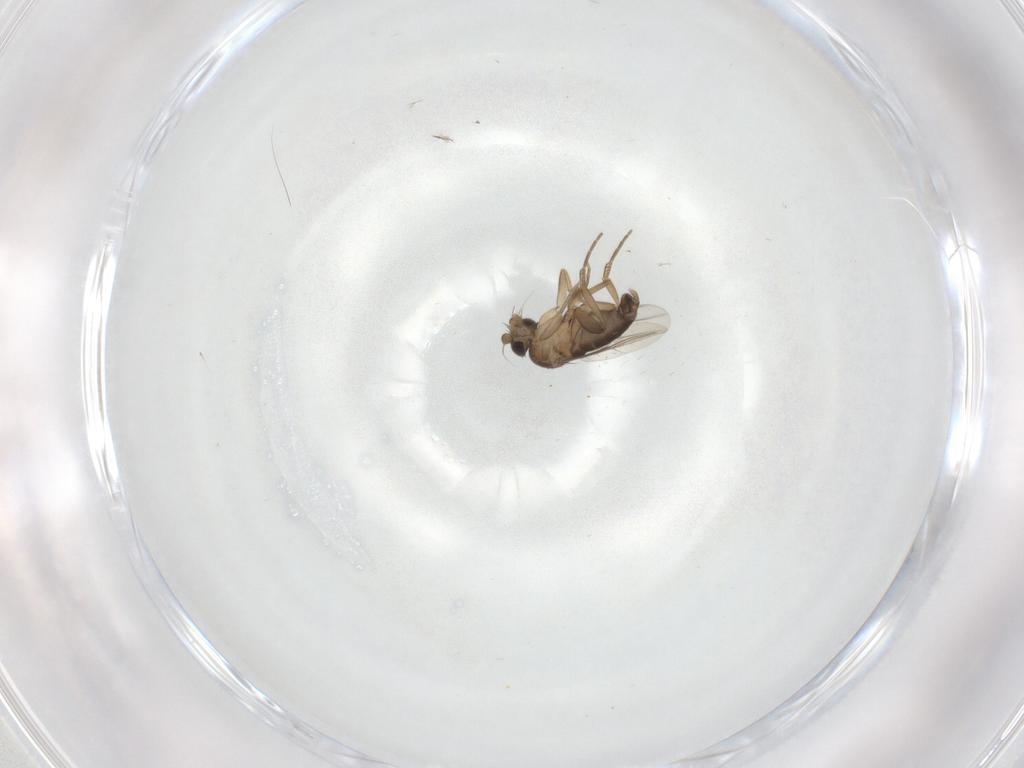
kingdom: Animalia
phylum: Arthropoda
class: Insecta
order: Diptera
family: Phoridae
